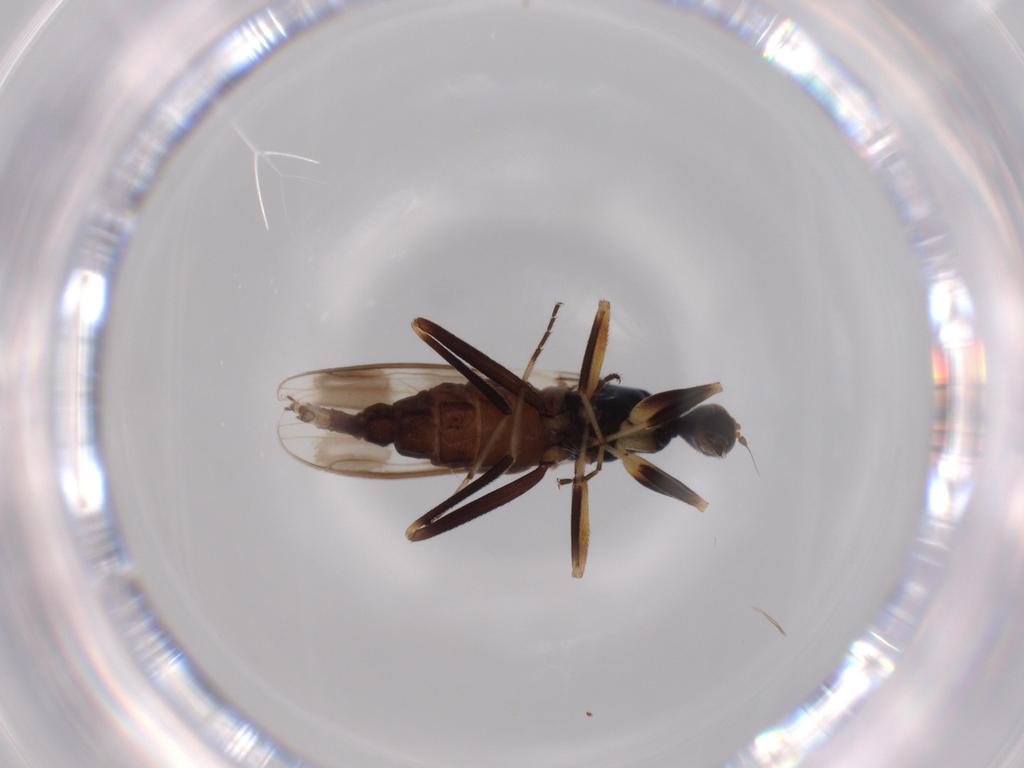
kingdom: Animalia
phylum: Arthropoda
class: Insecta
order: Diptera
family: Hybotidae
